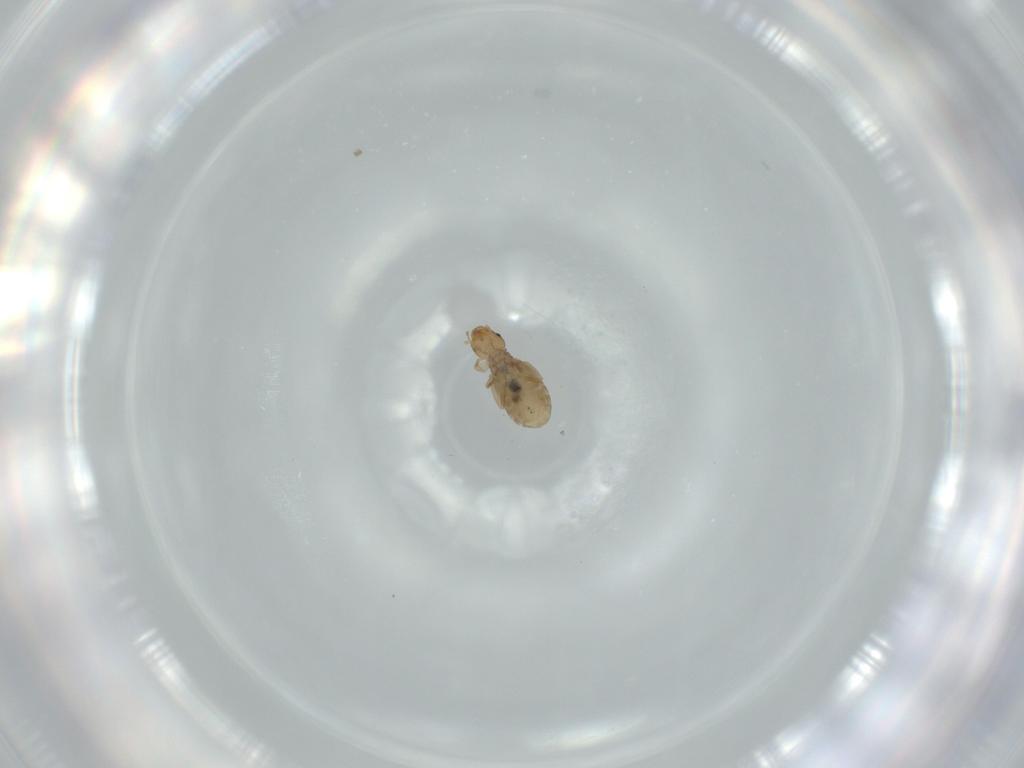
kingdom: Animalia
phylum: Arthropoda
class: Insecta
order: Psocodea
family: Liposcelididae
